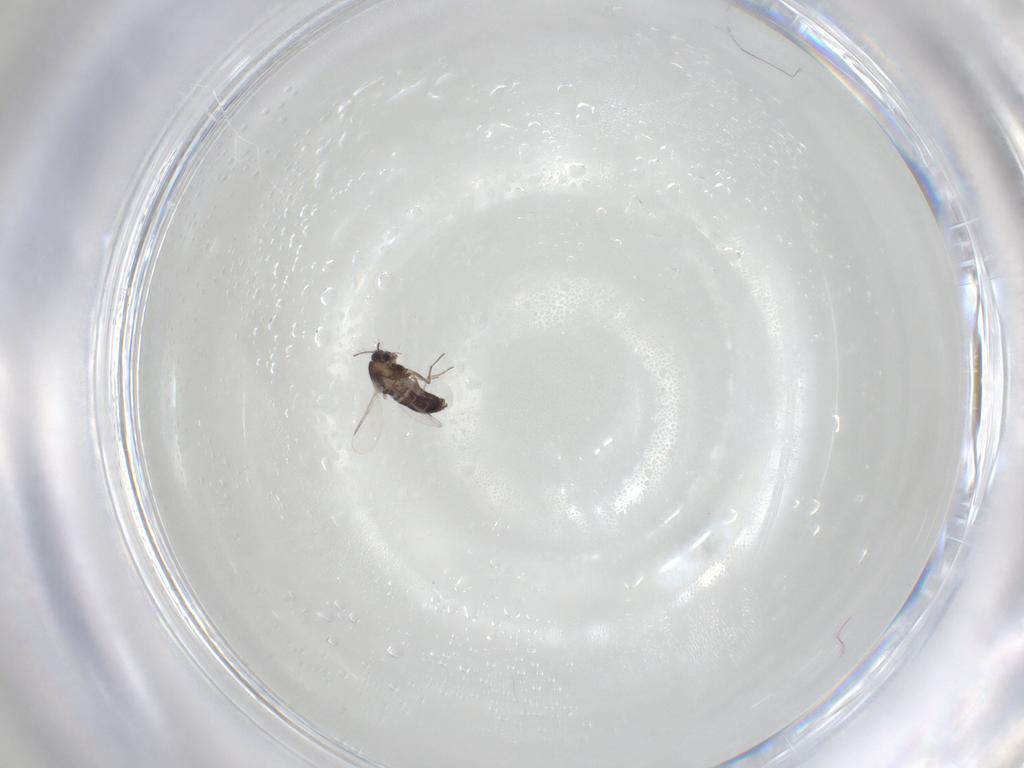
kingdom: Animalia
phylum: Arthropoda
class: Insecta
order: Diptera
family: Chironomidae
